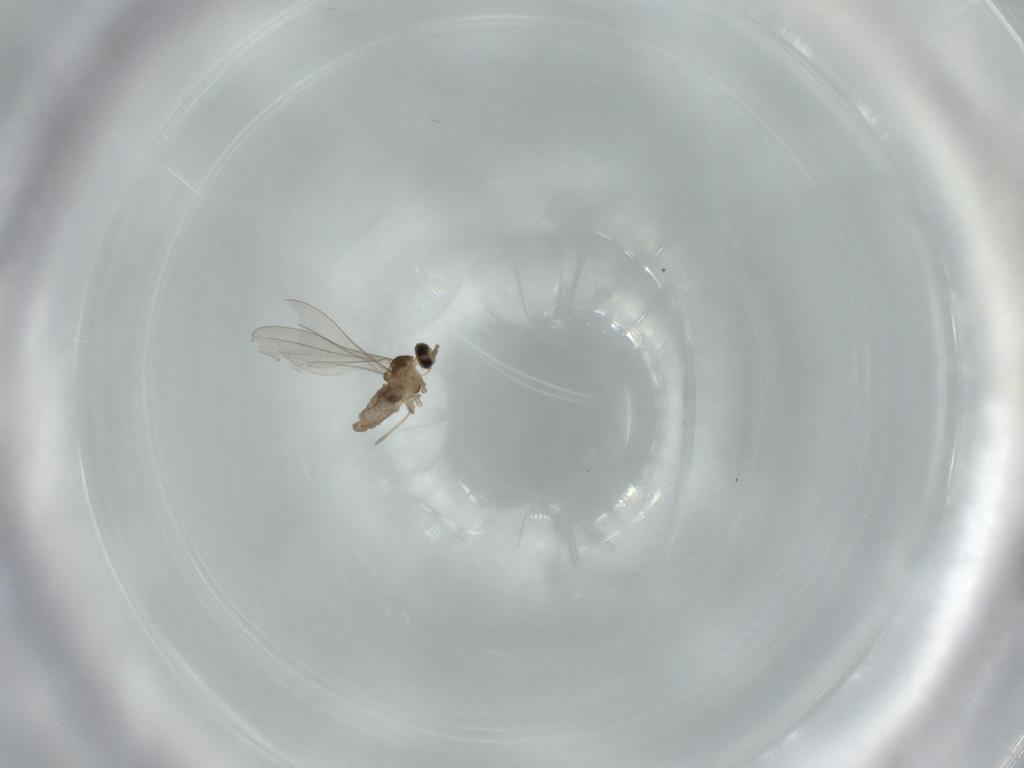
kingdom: Animalia
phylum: Arthropoda
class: Insecta
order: Diptera
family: Cecidomyiidae
